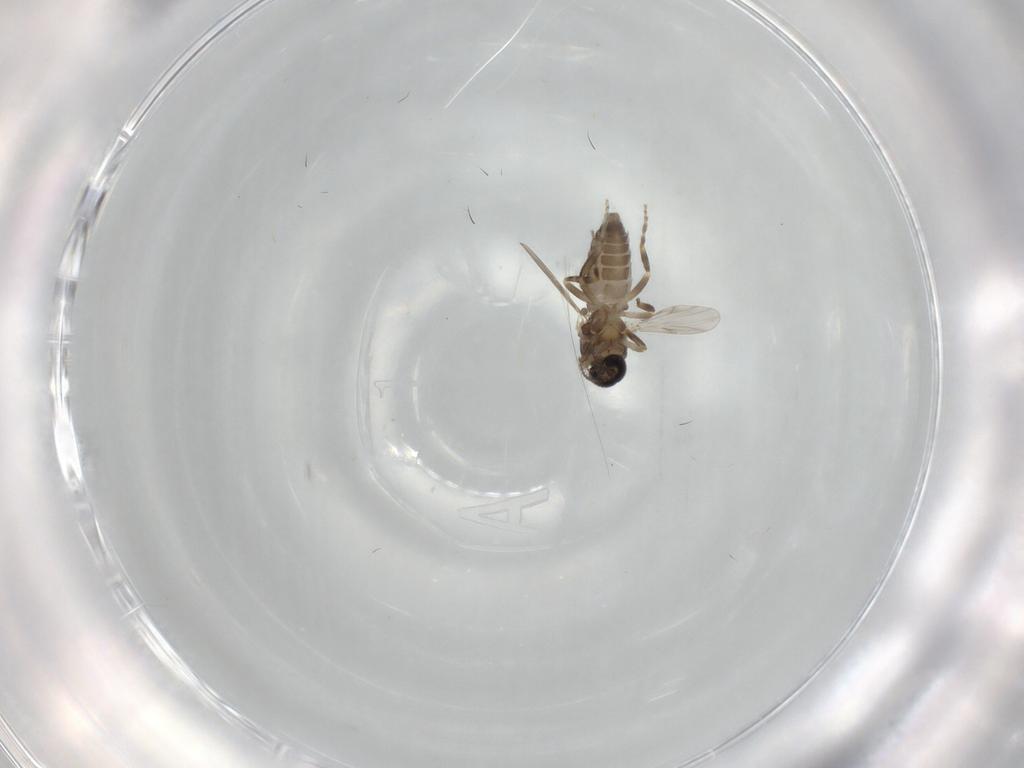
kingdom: Animalia
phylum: Arthropoda
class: Insecta
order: Diptera
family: Ceratopogonidae
